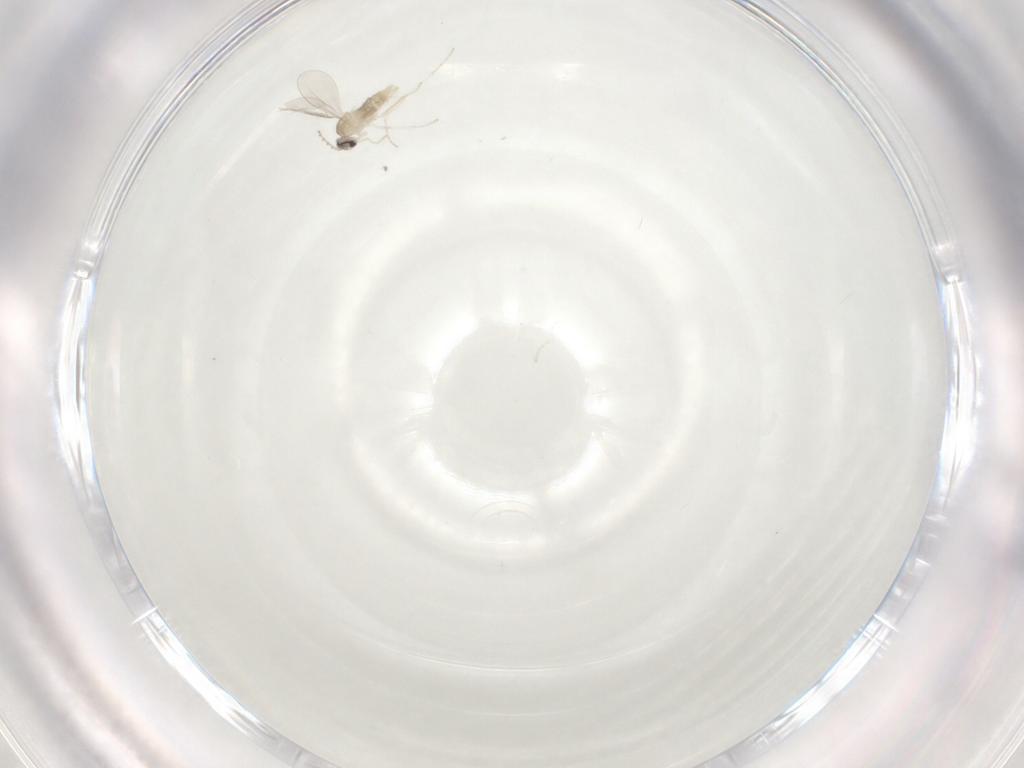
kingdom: Animalia
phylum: Arthropoda
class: Insecta
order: Diptera
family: Cecidomyiidae
